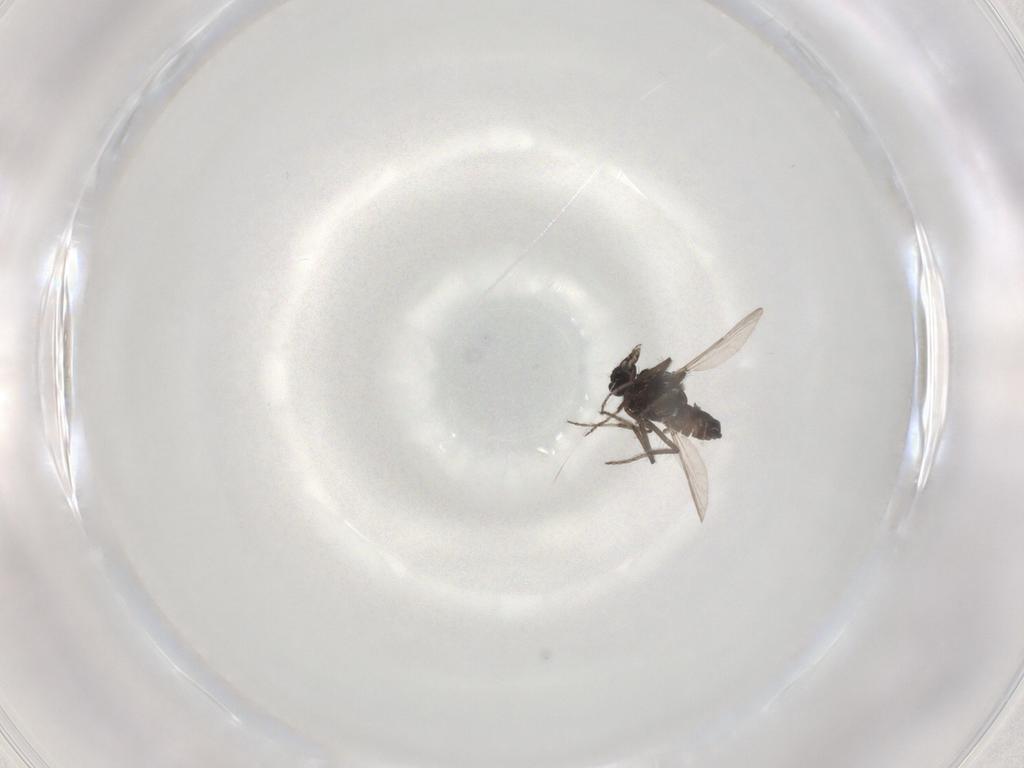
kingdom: Animalia
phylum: Arthropoda
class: Insecta
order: Diptera
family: Ceratopogonidae
